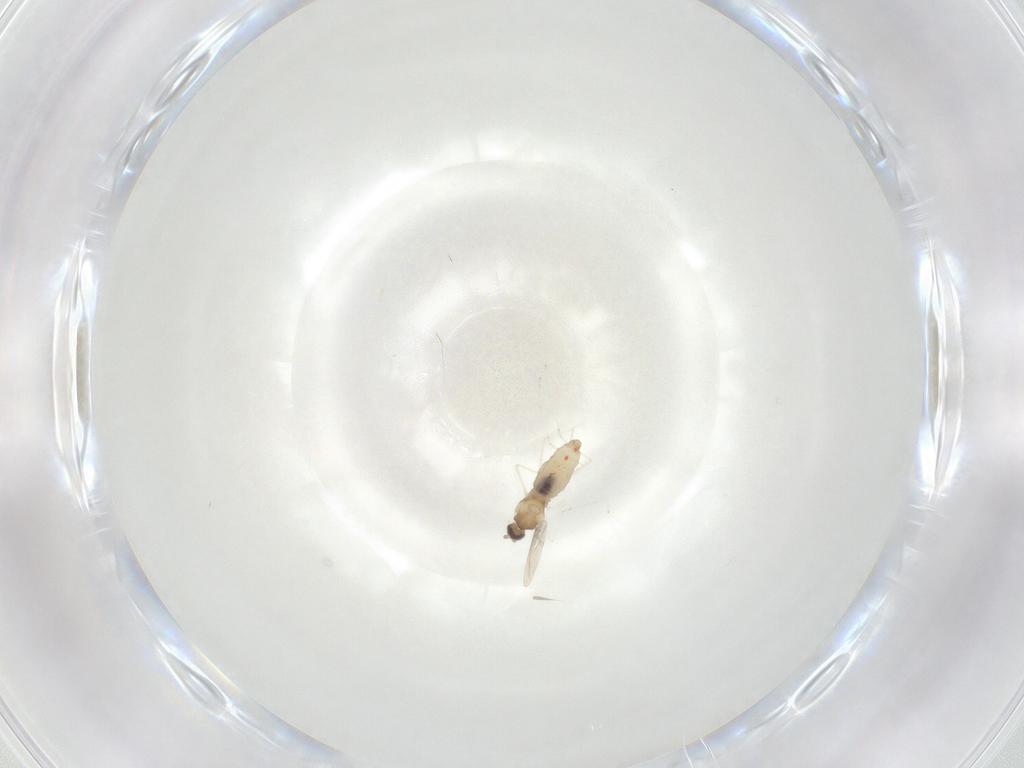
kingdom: Animalia
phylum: Arthropoda
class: Insecta
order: Diptera
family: Cecidomyiidae
